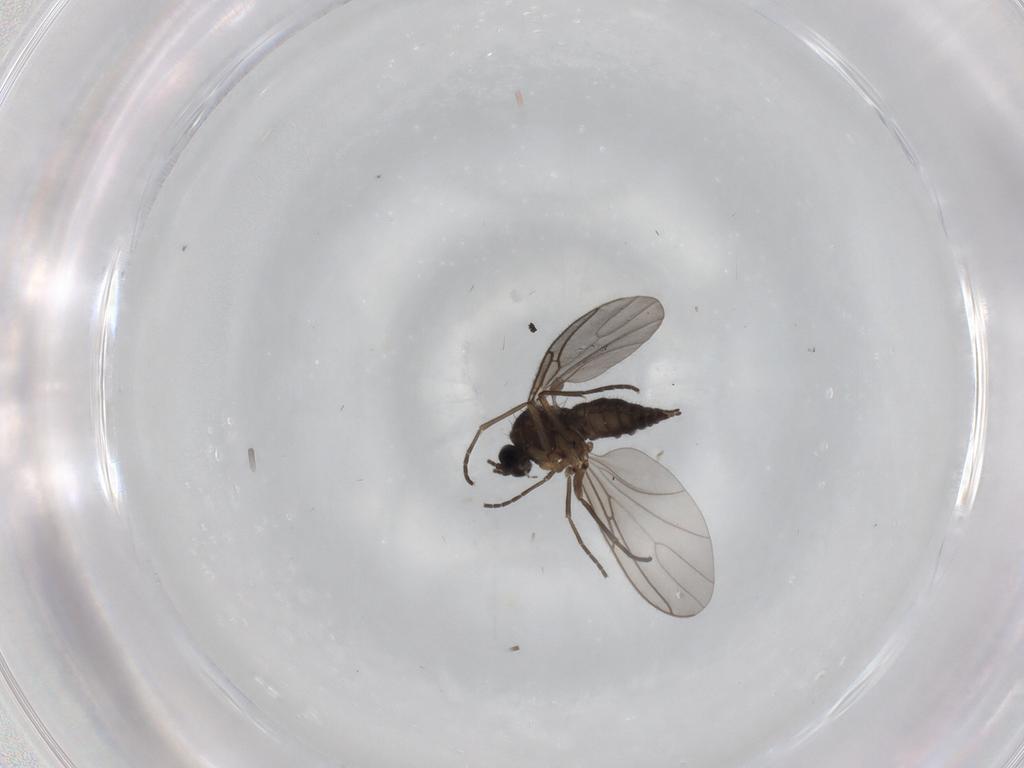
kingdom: Animalia
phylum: Arthropoda
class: Insecta
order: Diptera
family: Sciaridae
